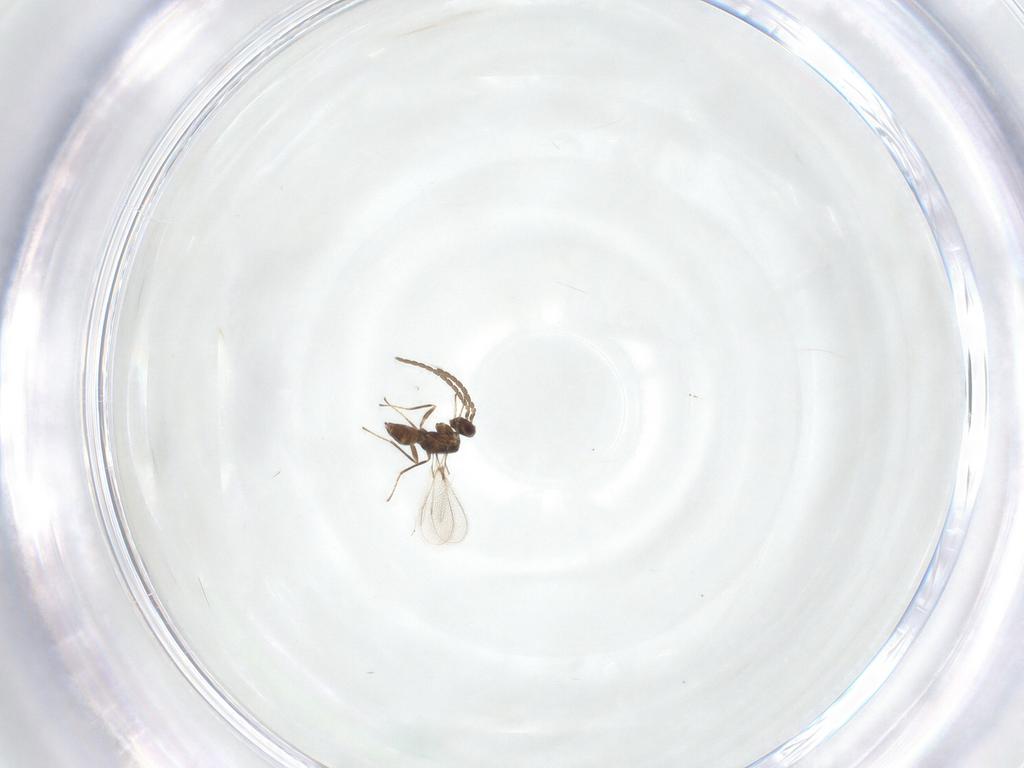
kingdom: Animalia
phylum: Arthropoda
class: Insecta
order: Hymenoptera
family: Mymaridae
